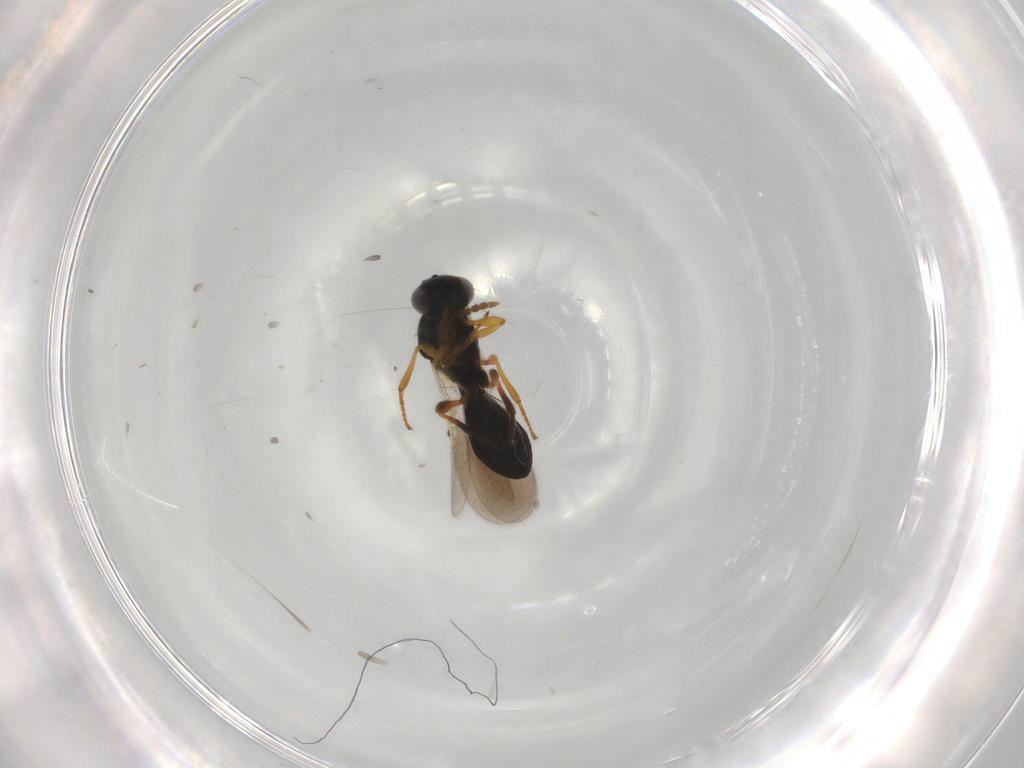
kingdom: Animalia
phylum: Arthropoda
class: Insecta
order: Hymenoptera
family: Platygastridae
